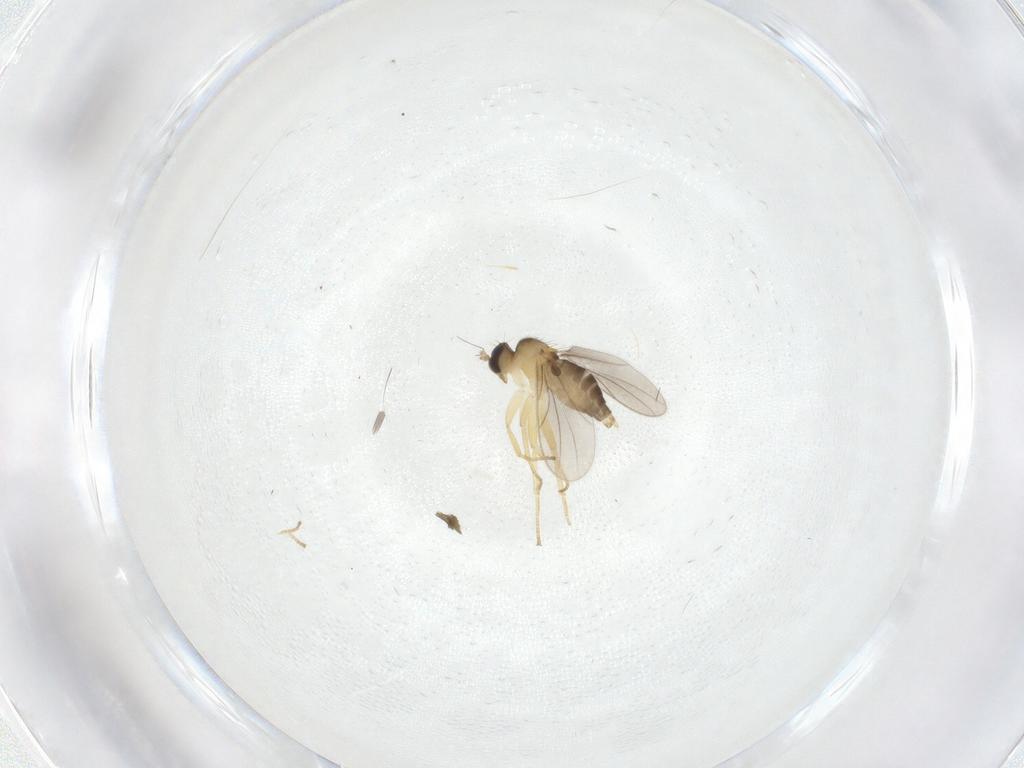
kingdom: Animalia
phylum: Arthropoda
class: Insecta
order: Diptera
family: Hybotidae
